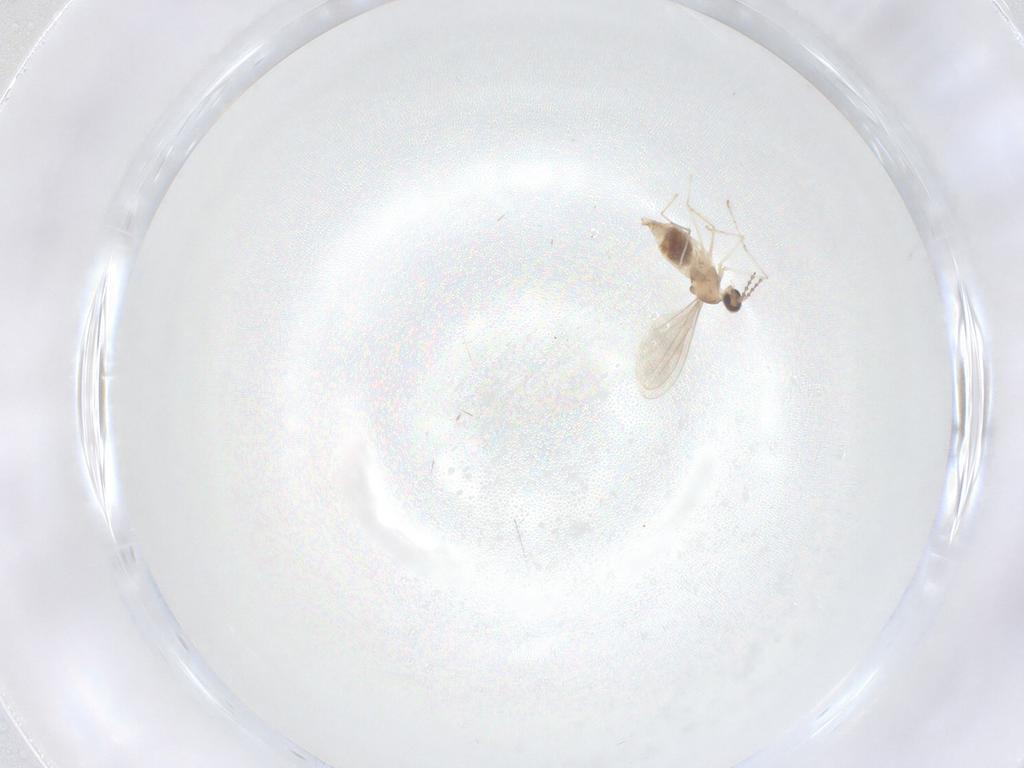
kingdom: Animalia
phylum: Arthropoda
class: Insecta
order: Diptera
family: Cecidomyiidae
